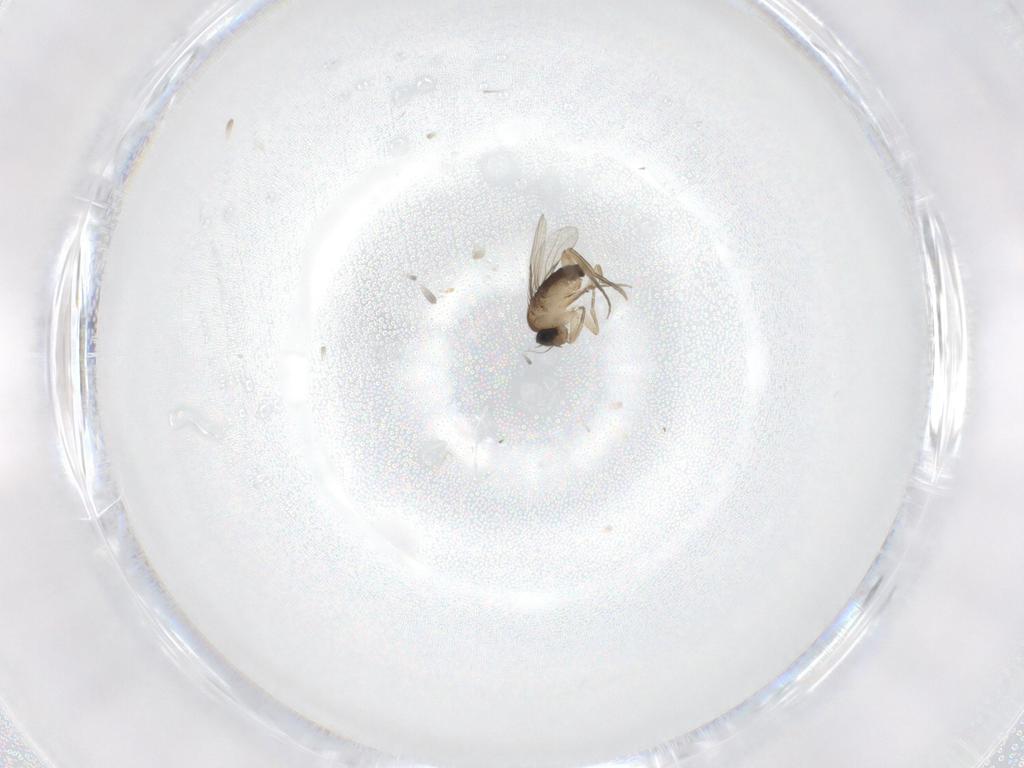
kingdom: Animalia
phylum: Arthropoda
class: Insecta
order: Diptera
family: Phoridae
